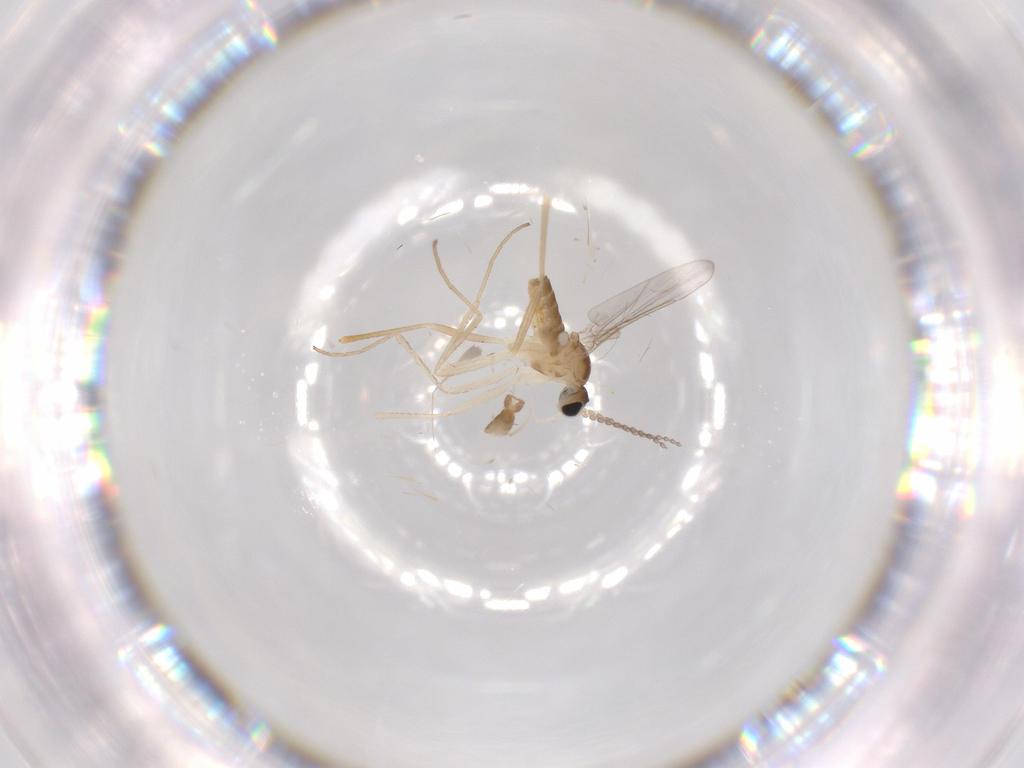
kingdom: Animalia
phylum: Arthropoda
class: Insecta
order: Diptera
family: Cecidomyiidae
